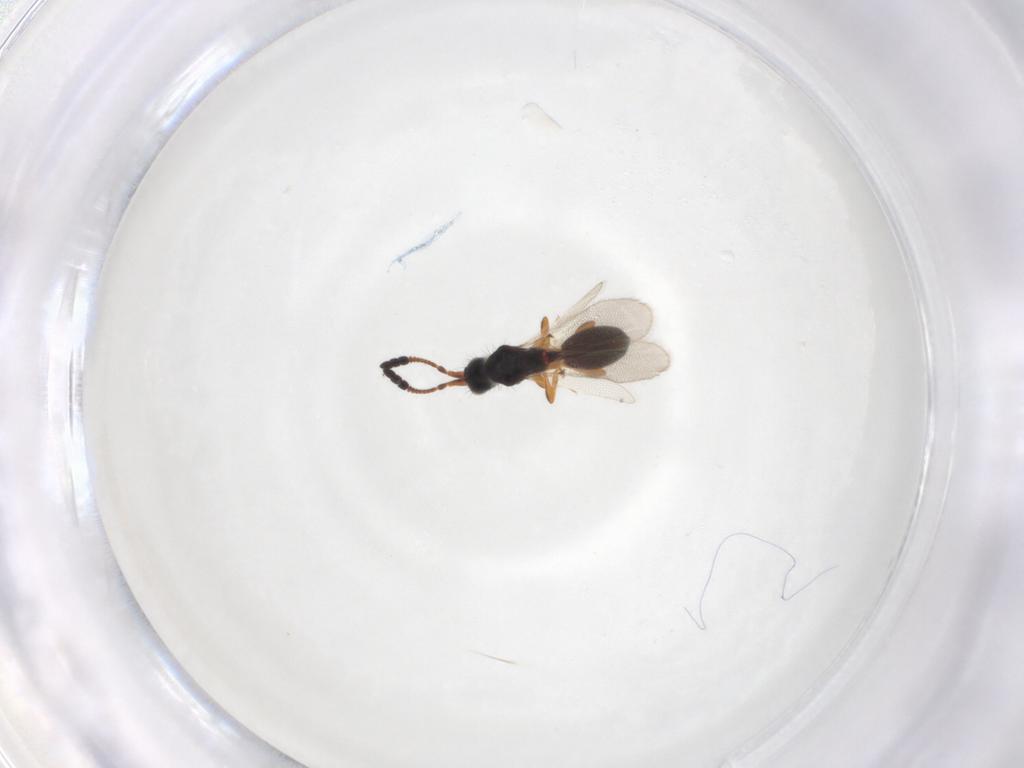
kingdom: Animalia
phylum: Arthropoda
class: Insecta
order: Hymenoptera
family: Diapriidae
